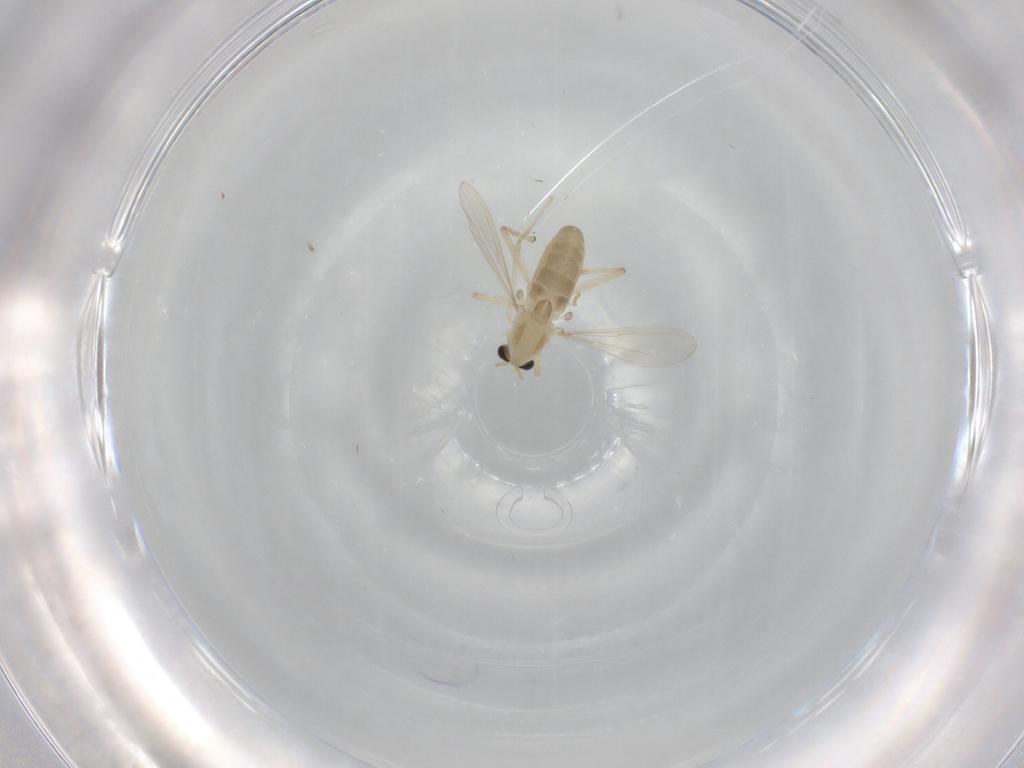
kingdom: Animalia
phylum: Arthropoda
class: Insecta
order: Diptera
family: Chironomidae
